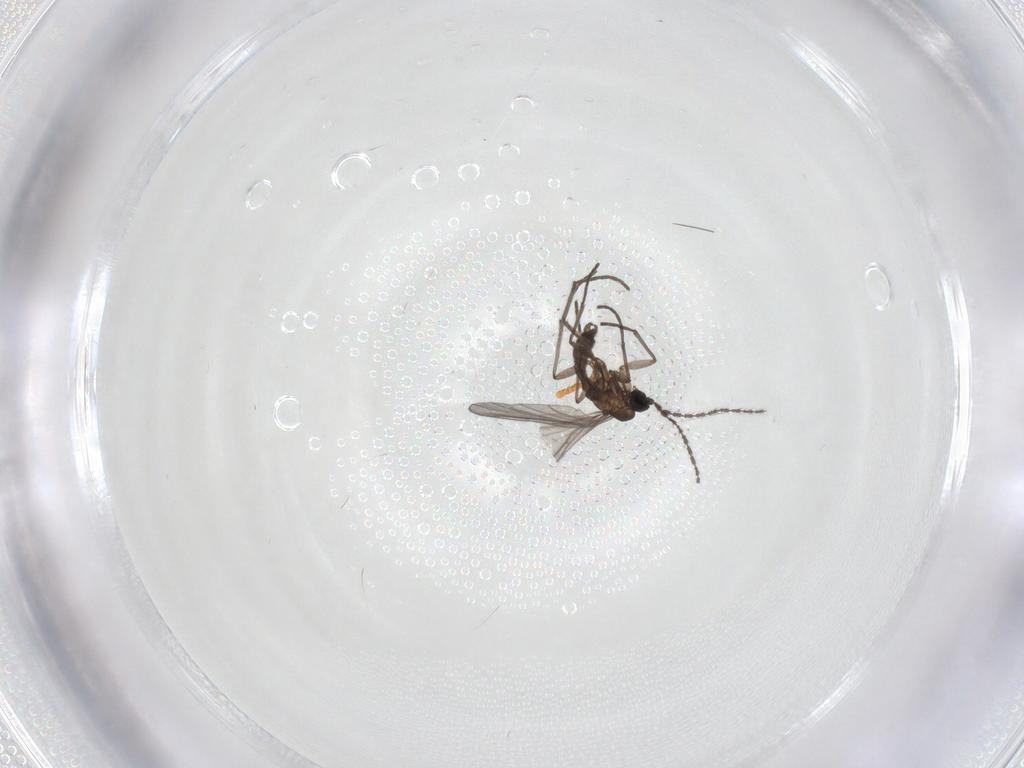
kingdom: Animalia
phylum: Arthropoda
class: Insecta
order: Diptera
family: Sciaridae
